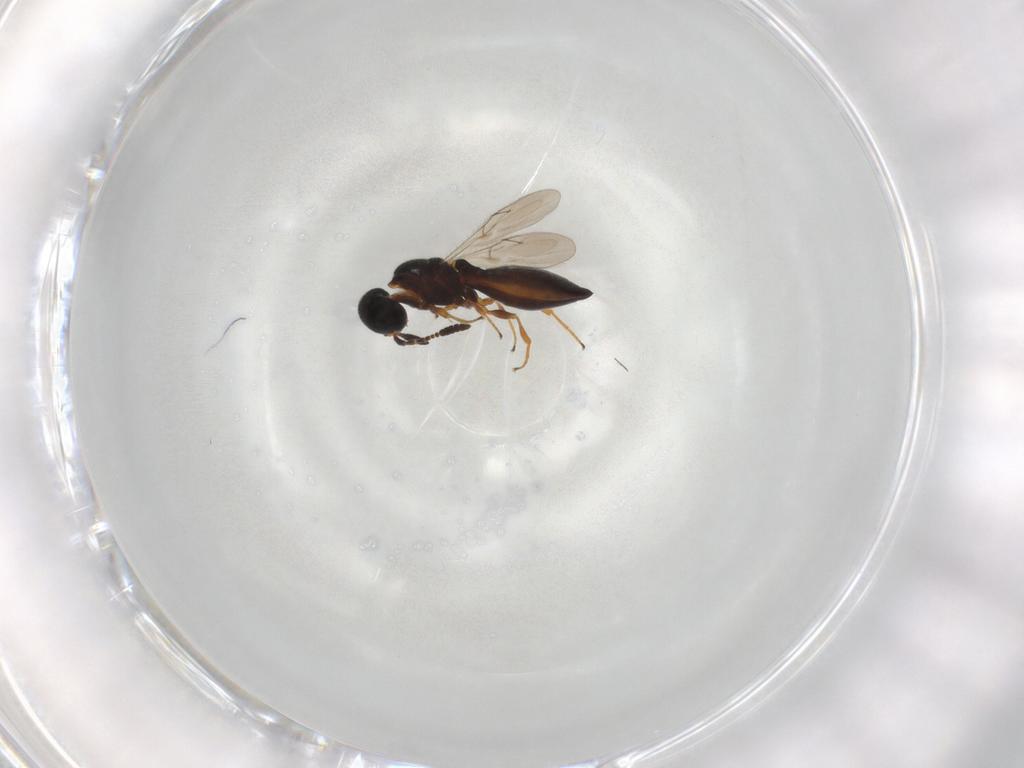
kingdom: Animalia
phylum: Arthropoda
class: Insecta
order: Hymenoptera
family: Scelionidae
